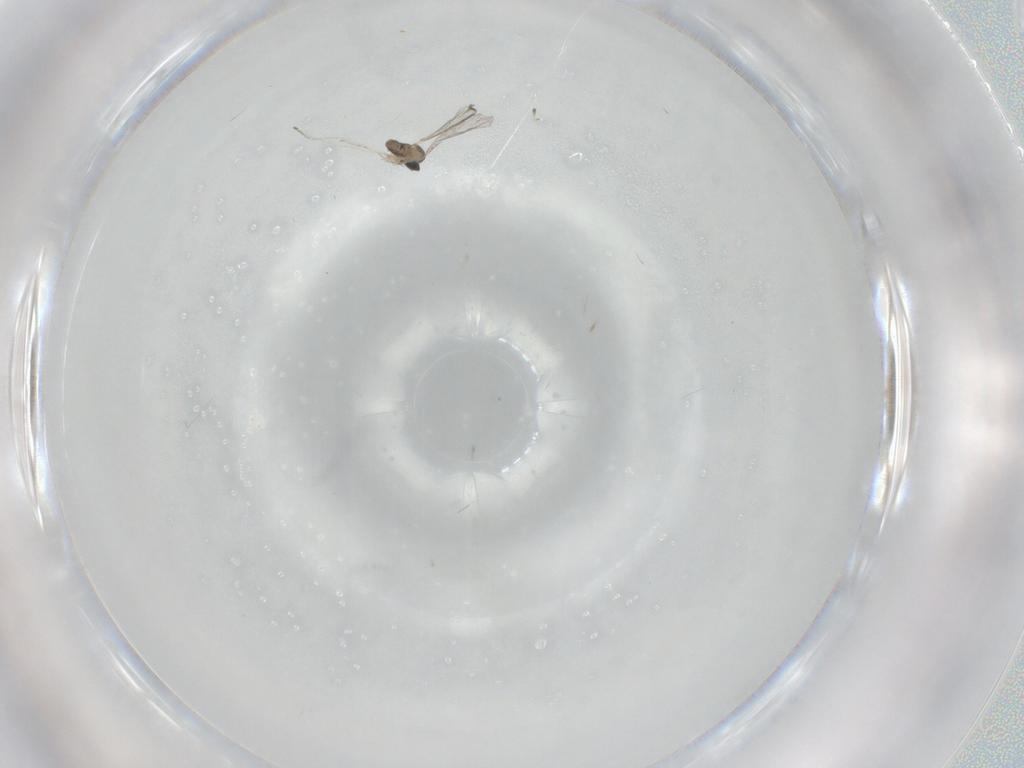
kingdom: Animalia
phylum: Arthropoda
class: Insecta
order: Diptera
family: Cecidomyiidae
